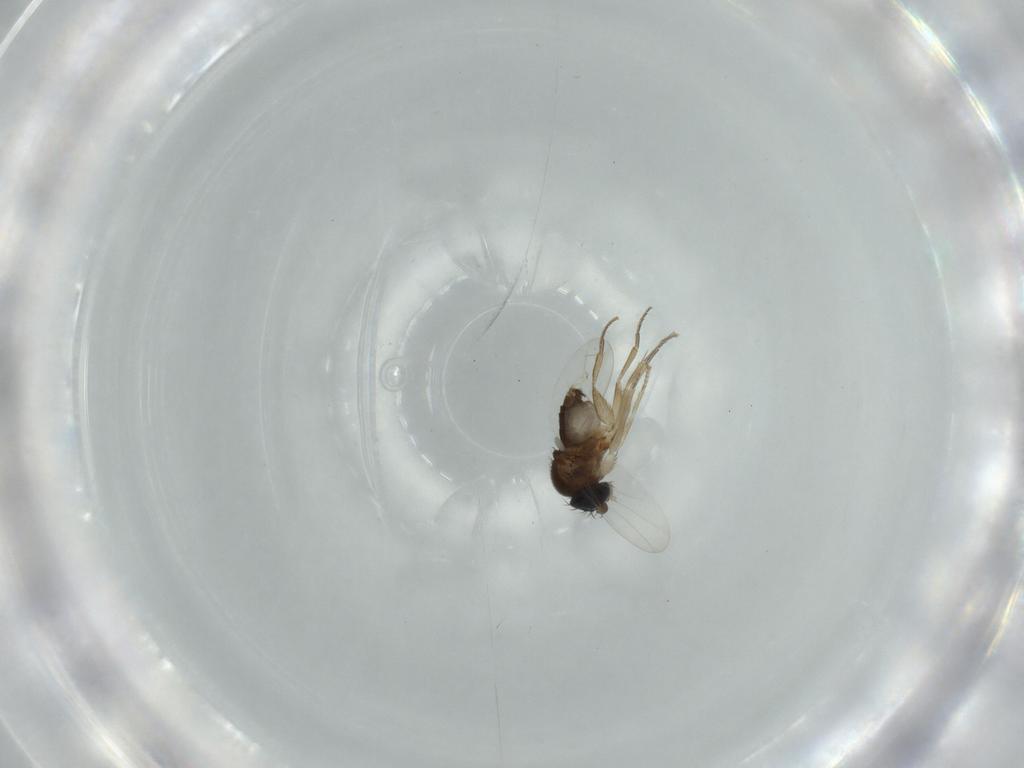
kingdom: Animalia
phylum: Arthropoda
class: Insecta
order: Diptera
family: Phoridae
